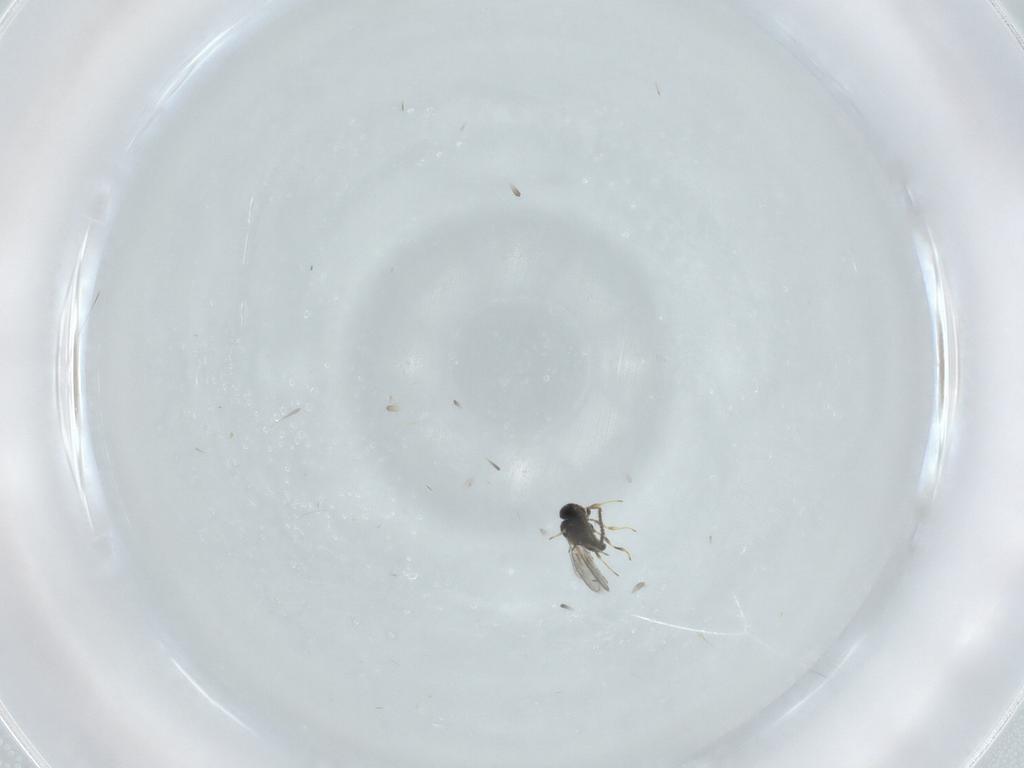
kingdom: Animalia
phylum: Arthropoda
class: Insecta
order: Hymenoptera
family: Scelionidae
